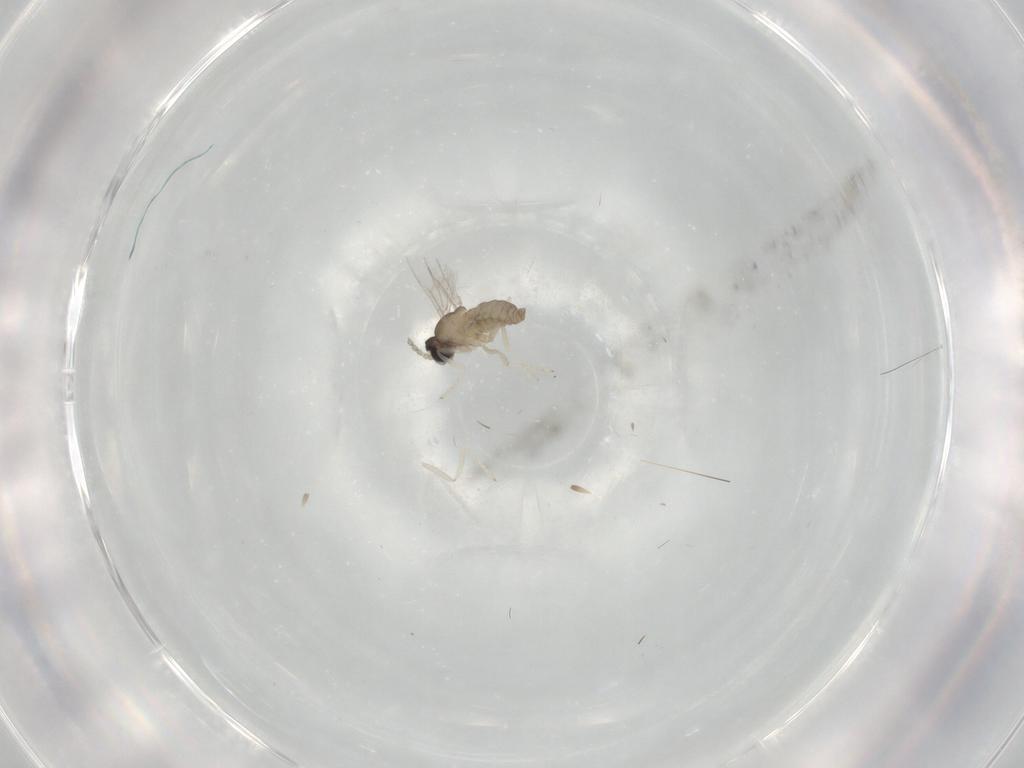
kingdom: Animalia
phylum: Arthropoda
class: Insecta
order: Diptera
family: Cecidomyiidae
